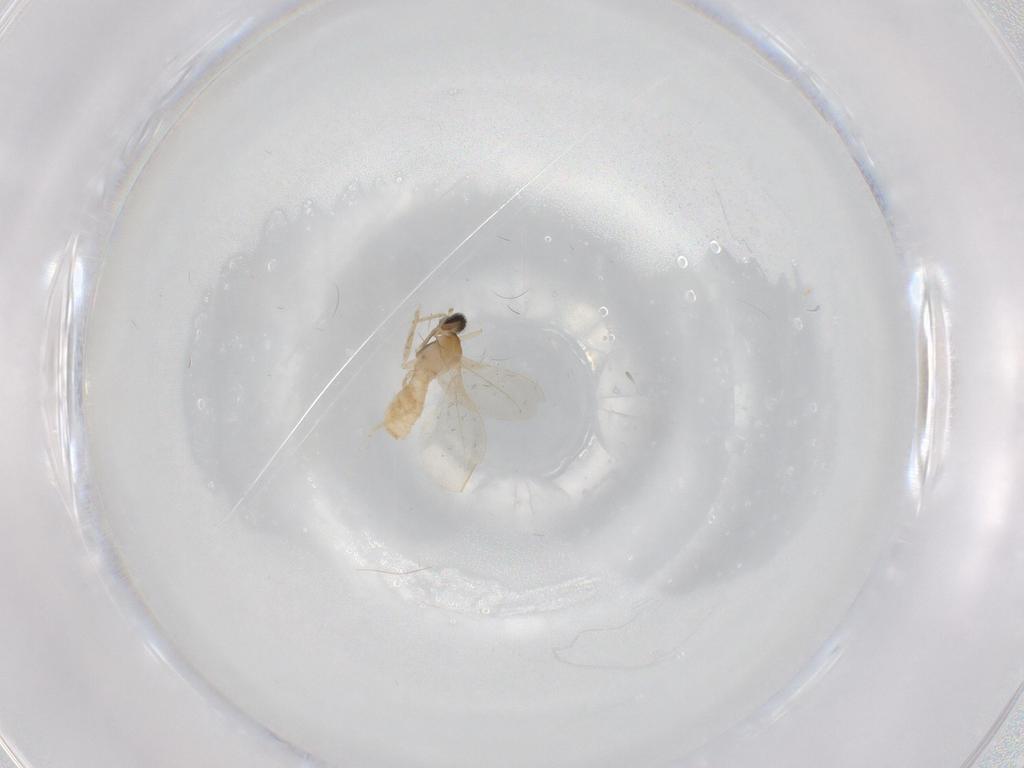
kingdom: Animalia
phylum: Arthropoda
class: Insecta
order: Diptera
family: Cecidomyiidae
